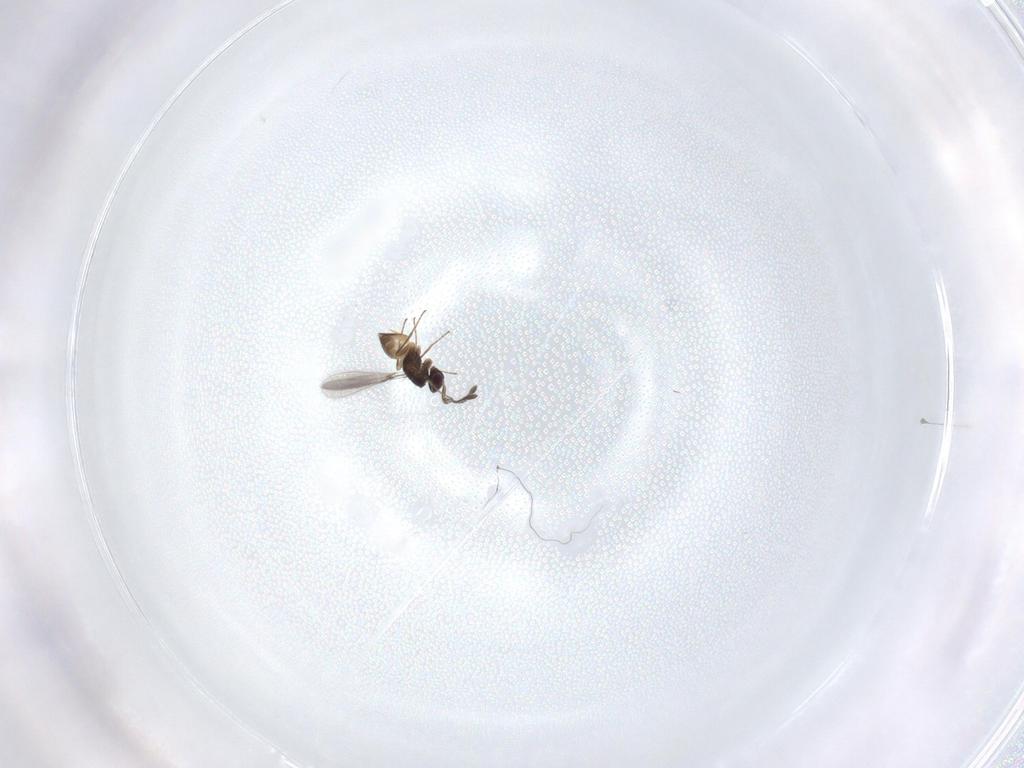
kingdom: Animalia
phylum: Arthropoda
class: Insecta
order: Hymenoptera
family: Mymaridae
